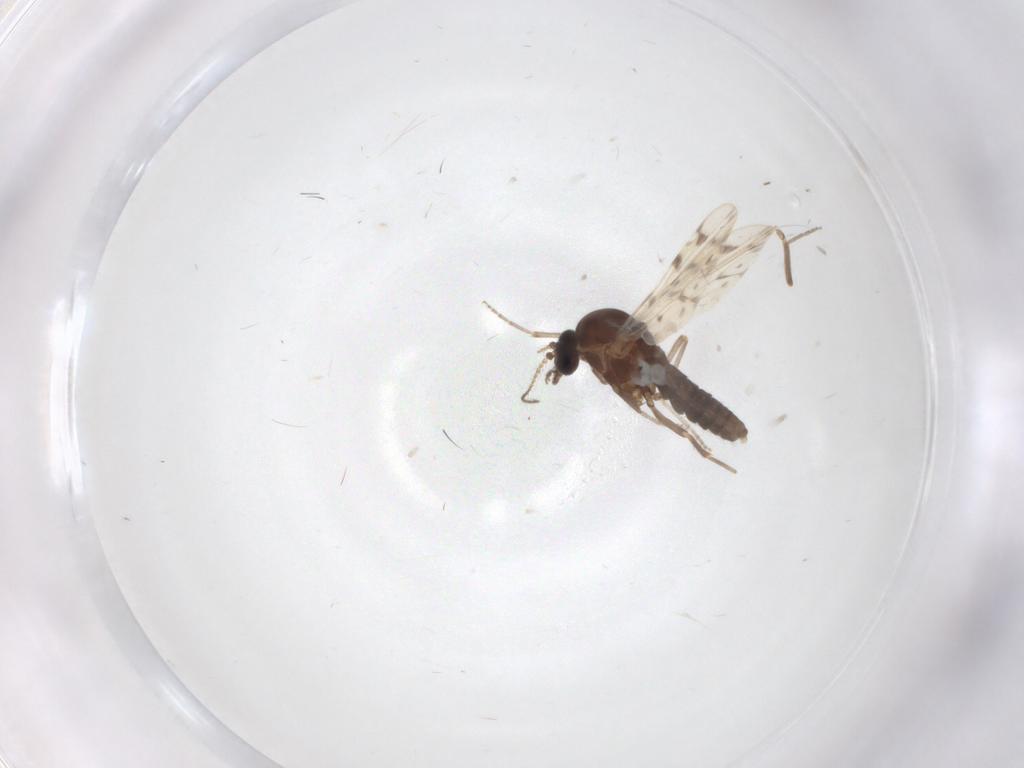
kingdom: Animalia
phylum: Arthropoda
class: Insecta
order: Diptera
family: Chironomidae
